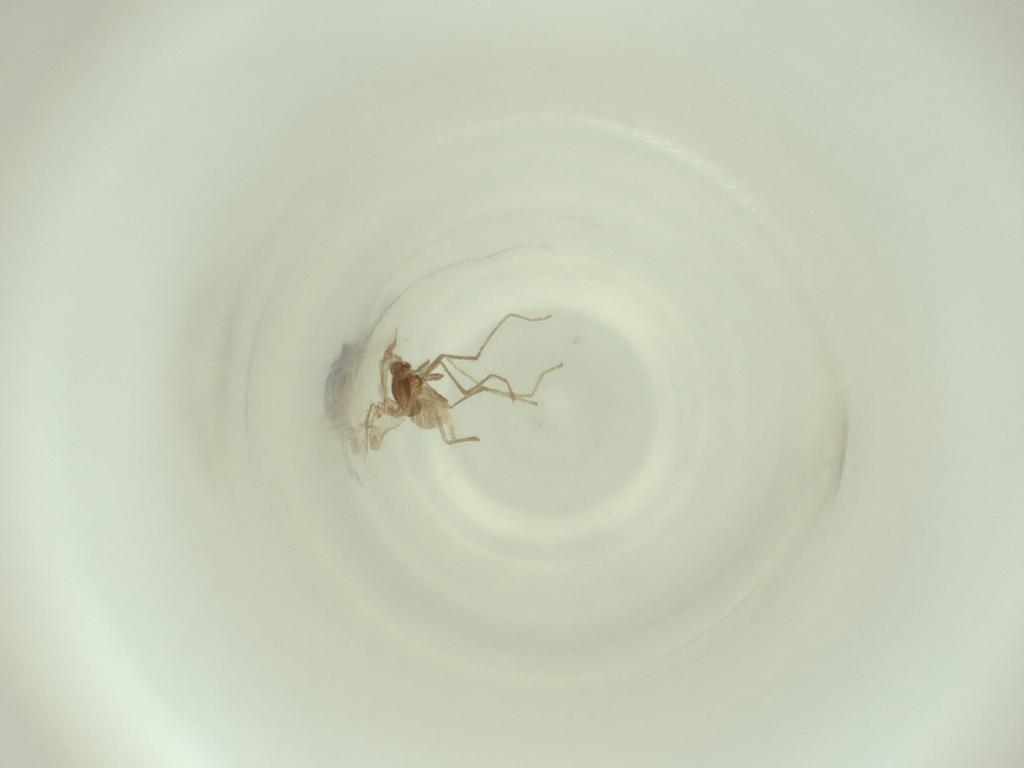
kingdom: Animalia
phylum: Arthropoda
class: Insecta
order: Diptera
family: Cecidomyiidae
